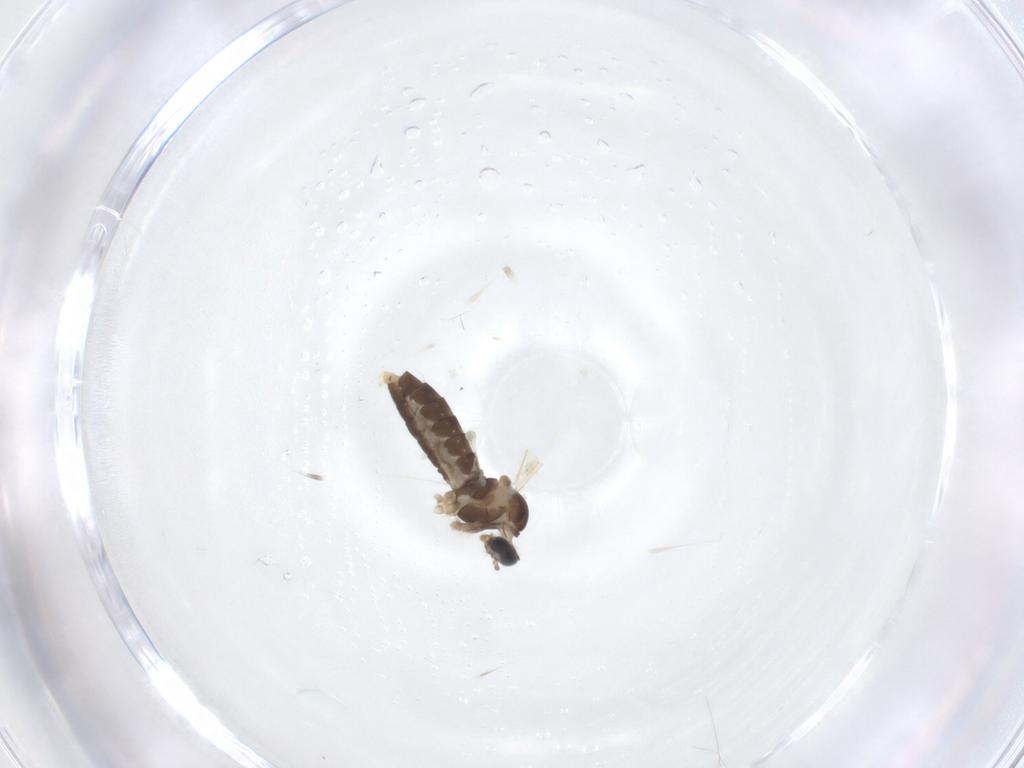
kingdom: Animalia
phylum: Arthropoda
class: Insecta
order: Diptera
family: Cecidomyiidae
